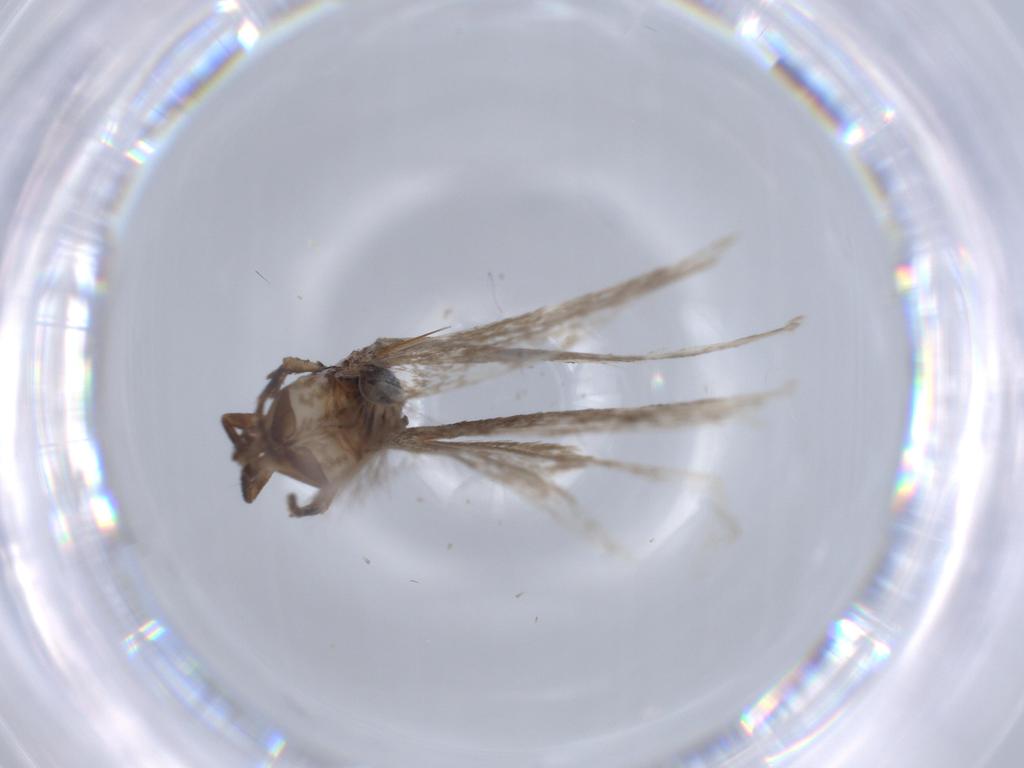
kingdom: Animalia
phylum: Arthropoda
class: Insecta
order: Lepidoptera
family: Gelechiidae
